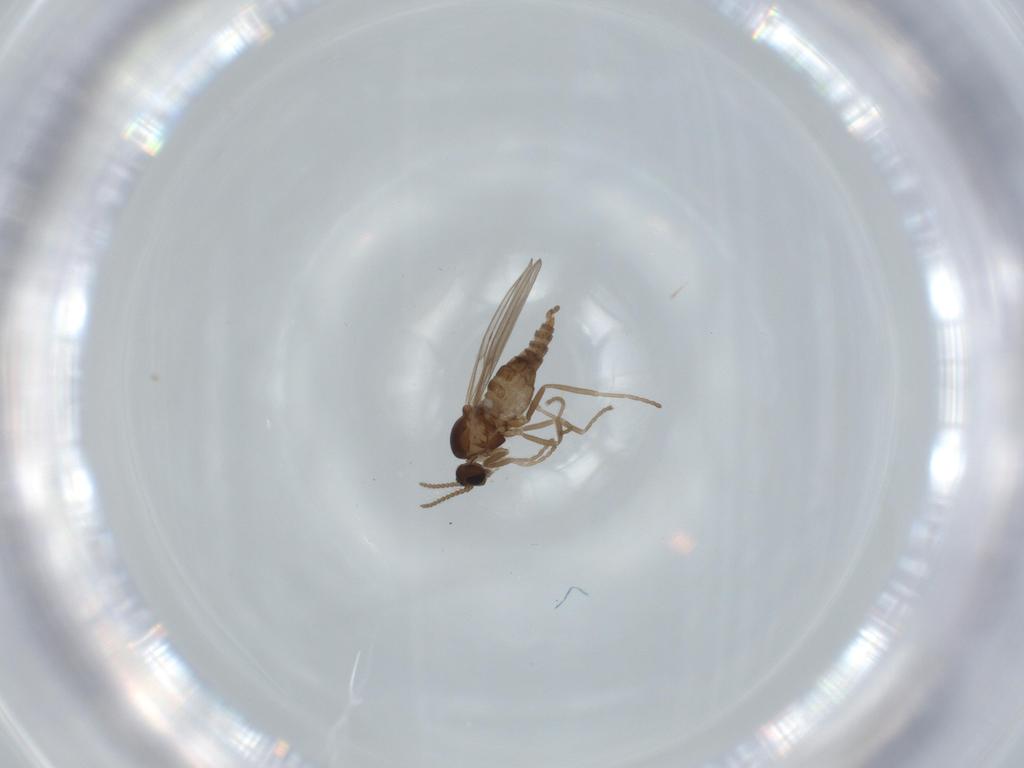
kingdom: Animalia
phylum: Arthropoda
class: Insecta
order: Diptera
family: Cecidomyiidae
